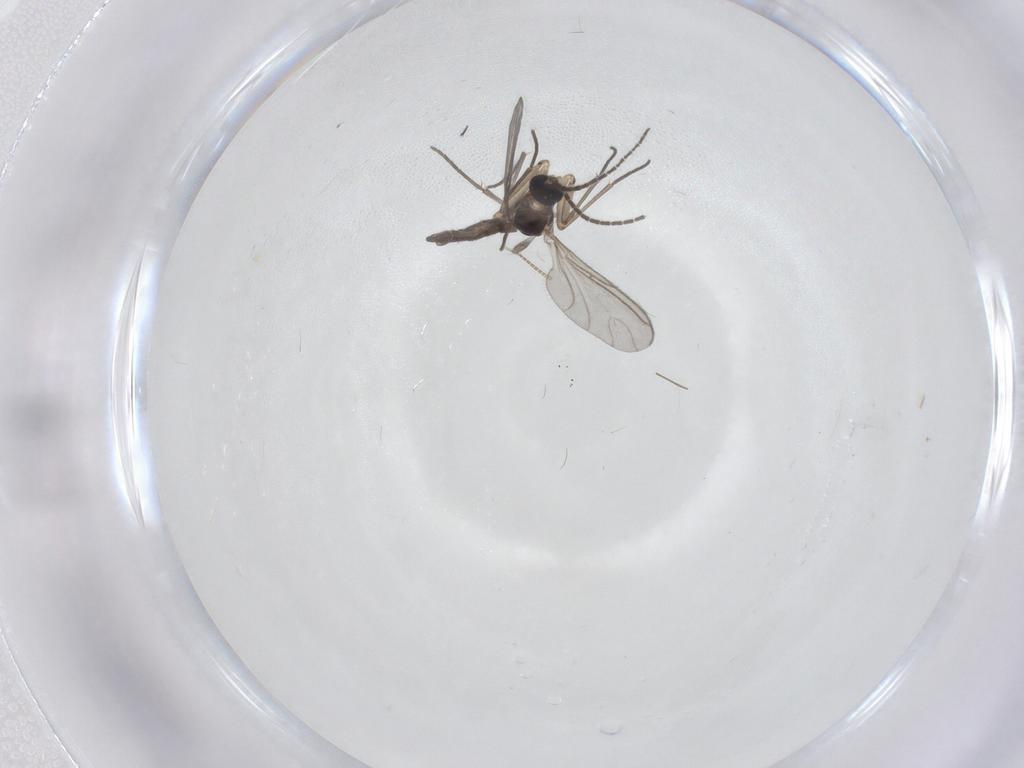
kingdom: Animalia
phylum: Arthropoda
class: Insecta
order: Diptera
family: Sciaridae
